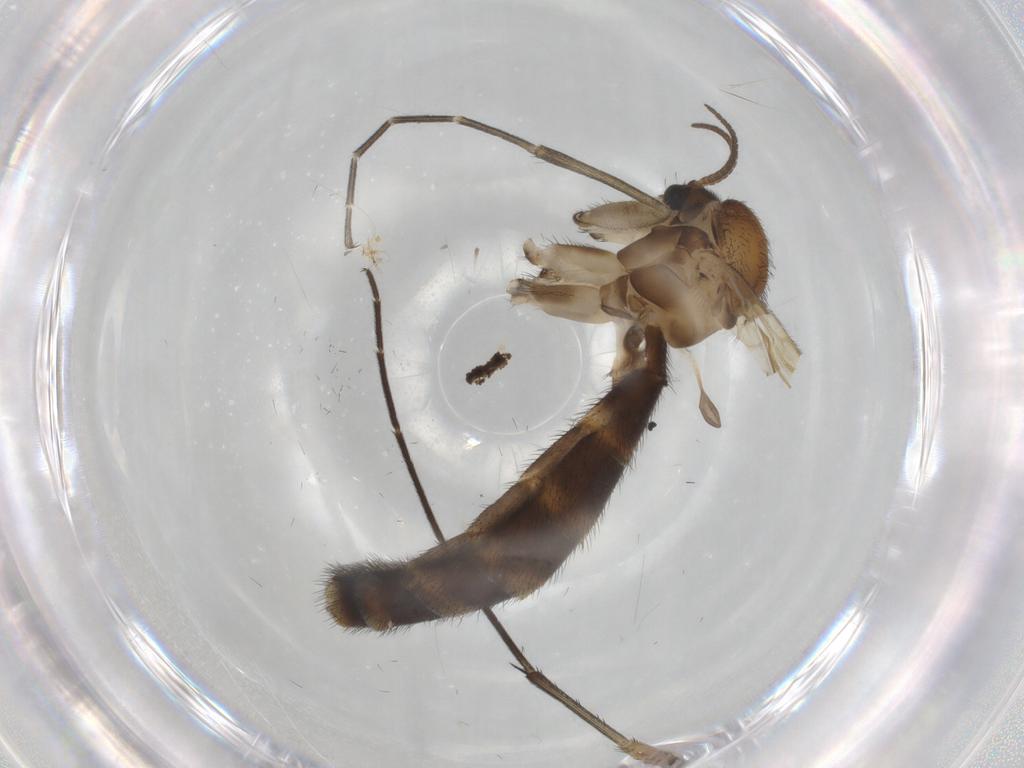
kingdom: Animalia
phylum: Arthropoda
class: Insecta
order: Diptera
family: Keroplatidae
